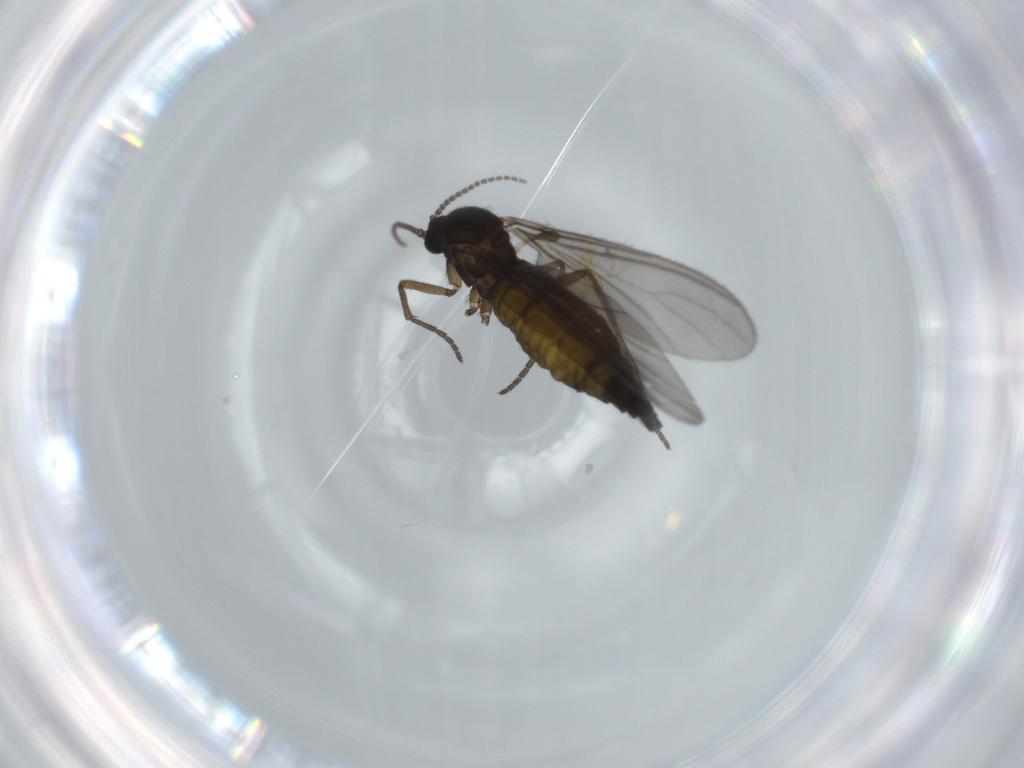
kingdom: Animalia
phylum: Arthropoda
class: Insecta
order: Diptera
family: Sciaridae
